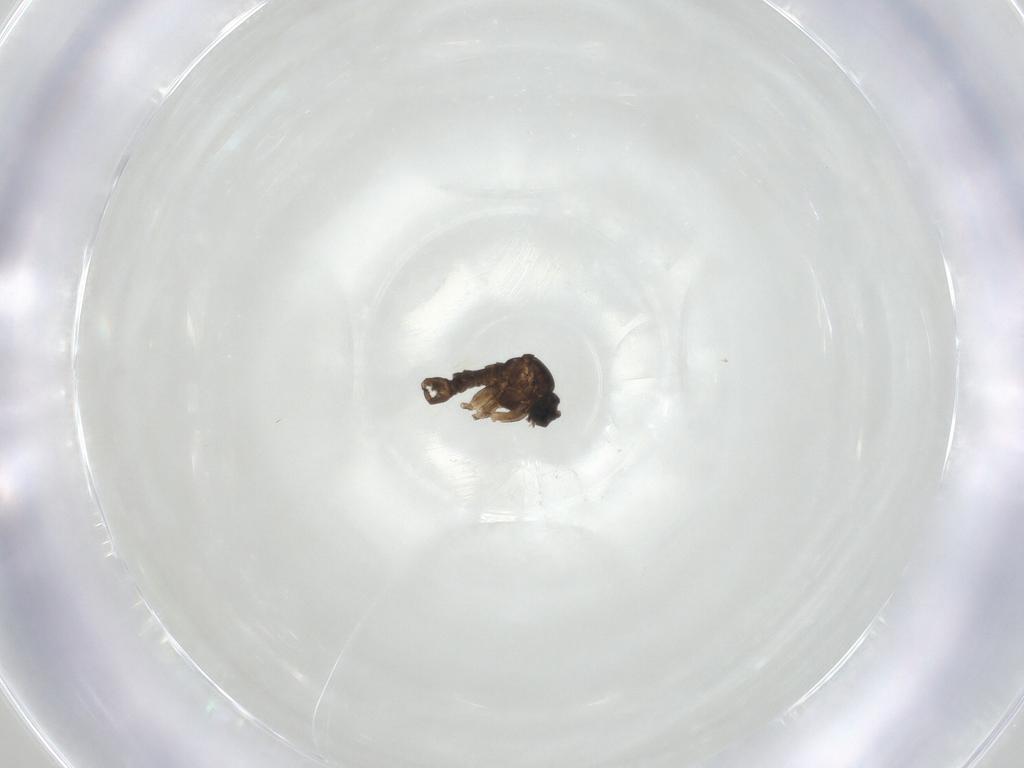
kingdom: Animalia
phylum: Arthropoda
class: Insecta
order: Diptera
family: Sciaridae
